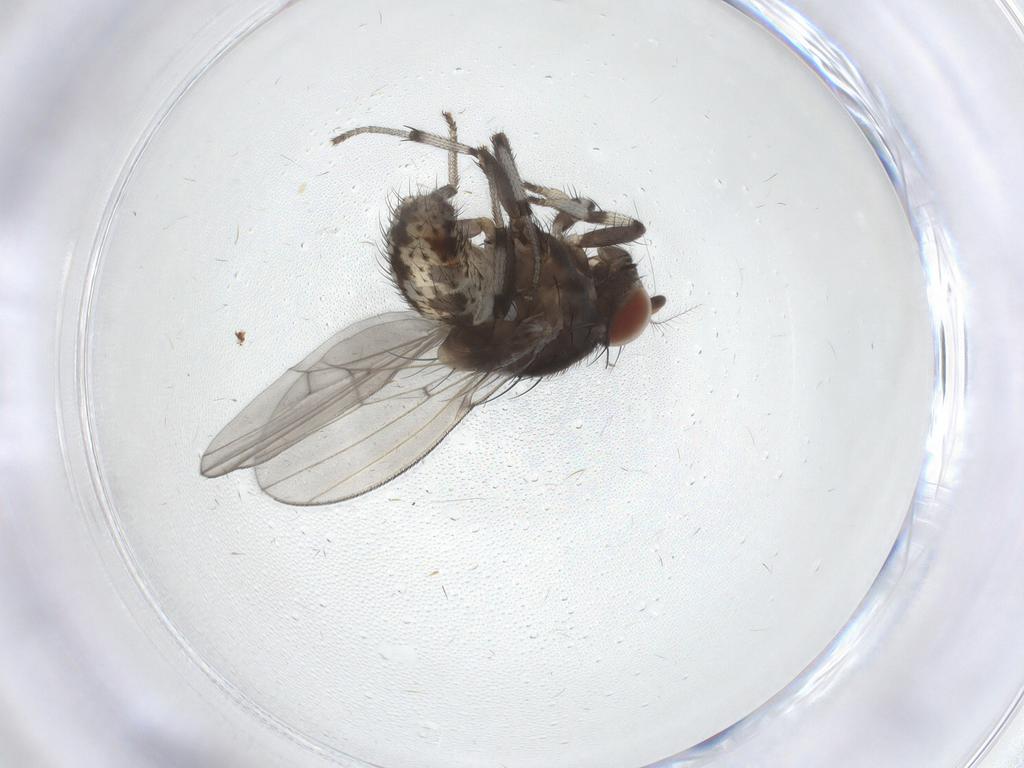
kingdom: Animalia
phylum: Arthropoda
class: Insecta
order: Diptera
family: Lauxaniidae
